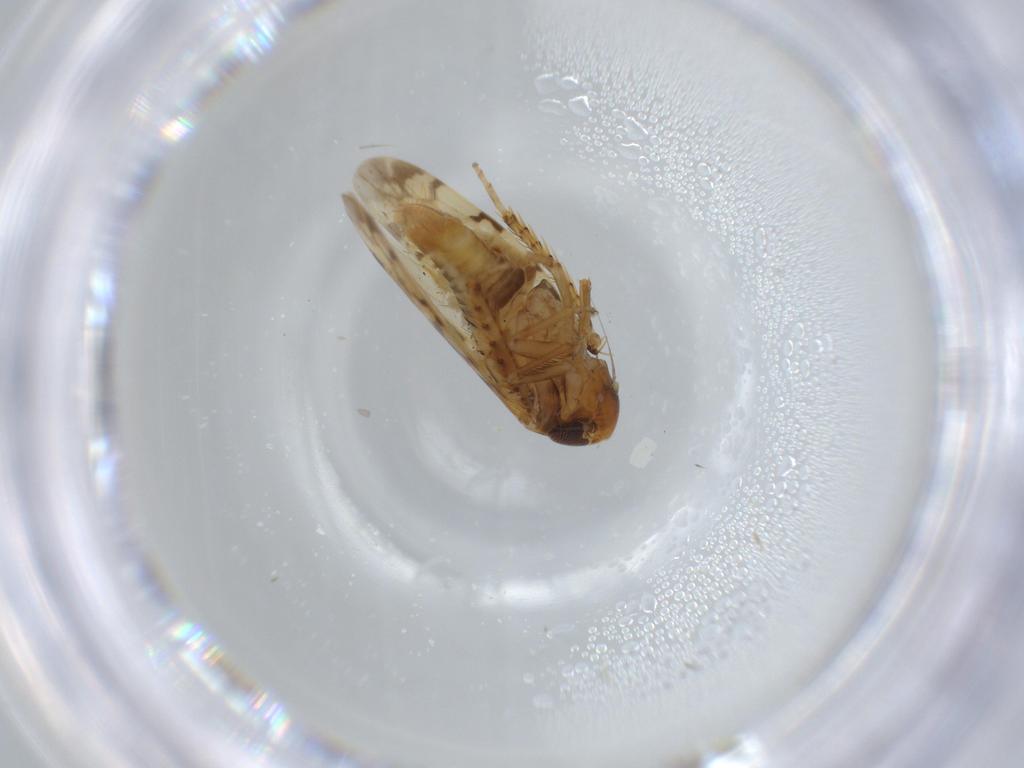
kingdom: Animalia
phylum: Arthropoda
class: Insecta
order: Hemiptera
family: Cicadellidae
